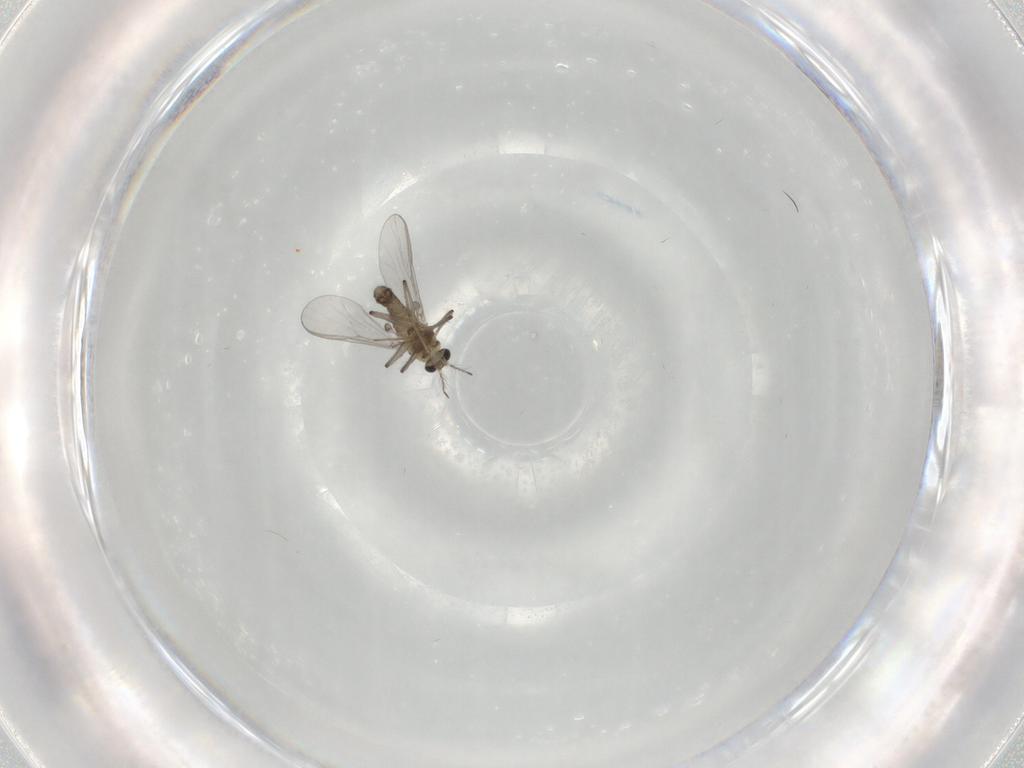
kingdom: Animalia
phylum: Arthropoda
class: Insecta
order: Diptera
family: Chironomidae
